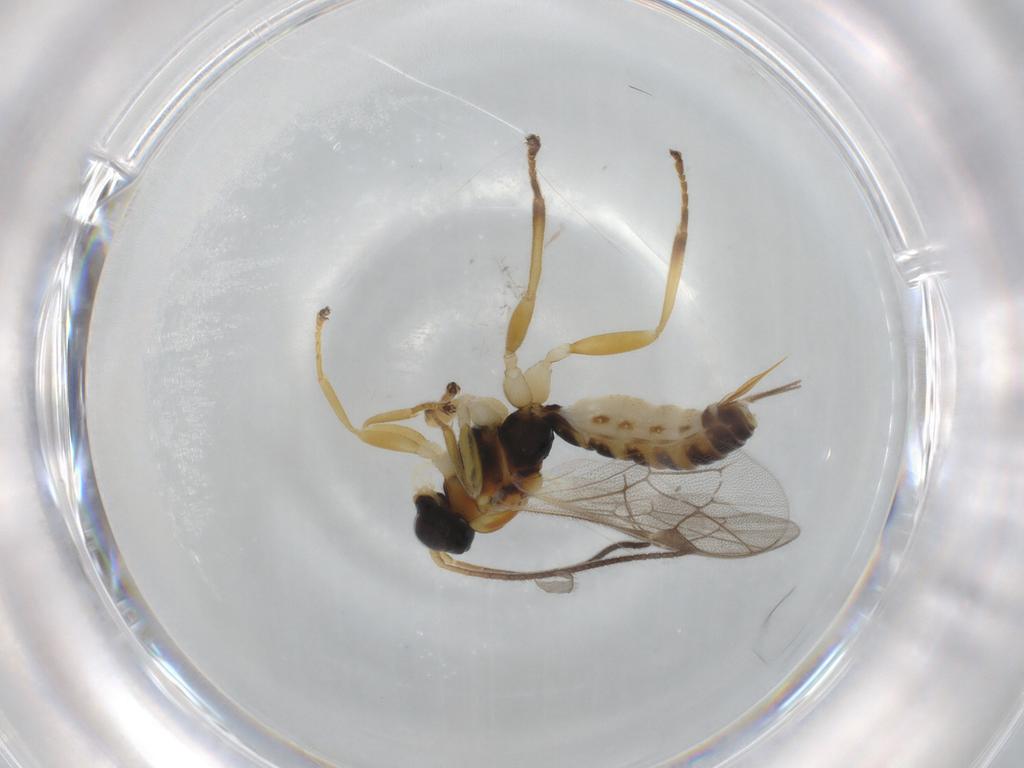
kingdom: Animalia
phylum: Arthropoda
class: Insecta
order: Hymenoptera
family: Ichneumonidae
